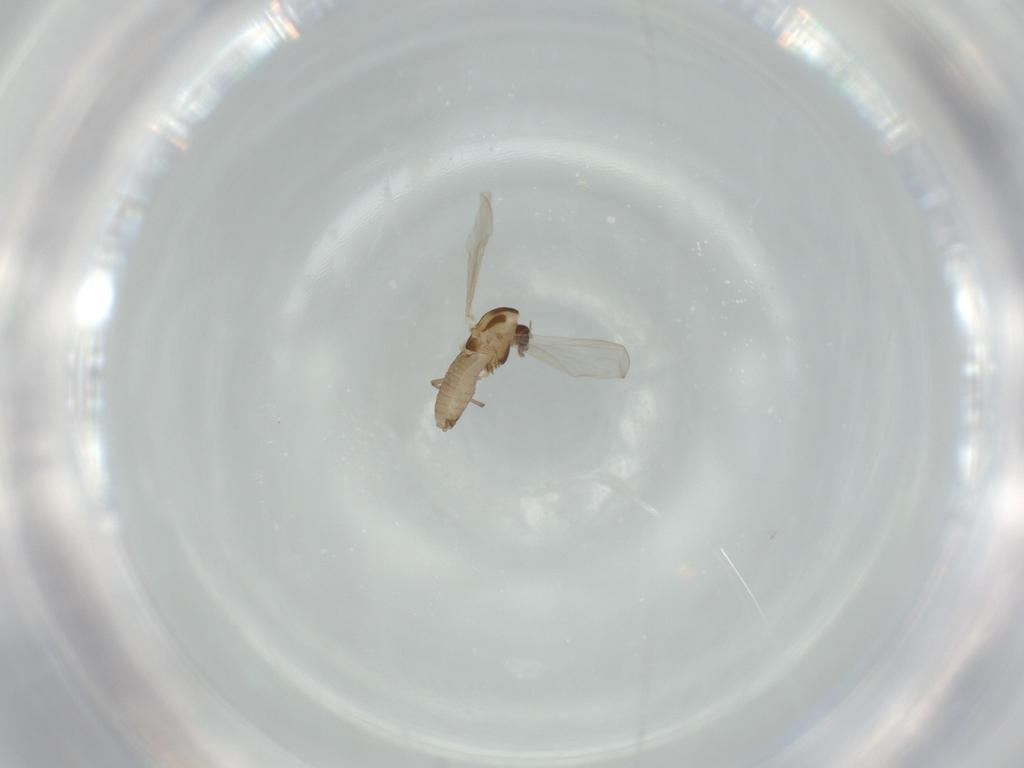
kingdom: Animalia
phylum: Arthropoda
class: Insecta
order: Diptera
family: Chironomidae
